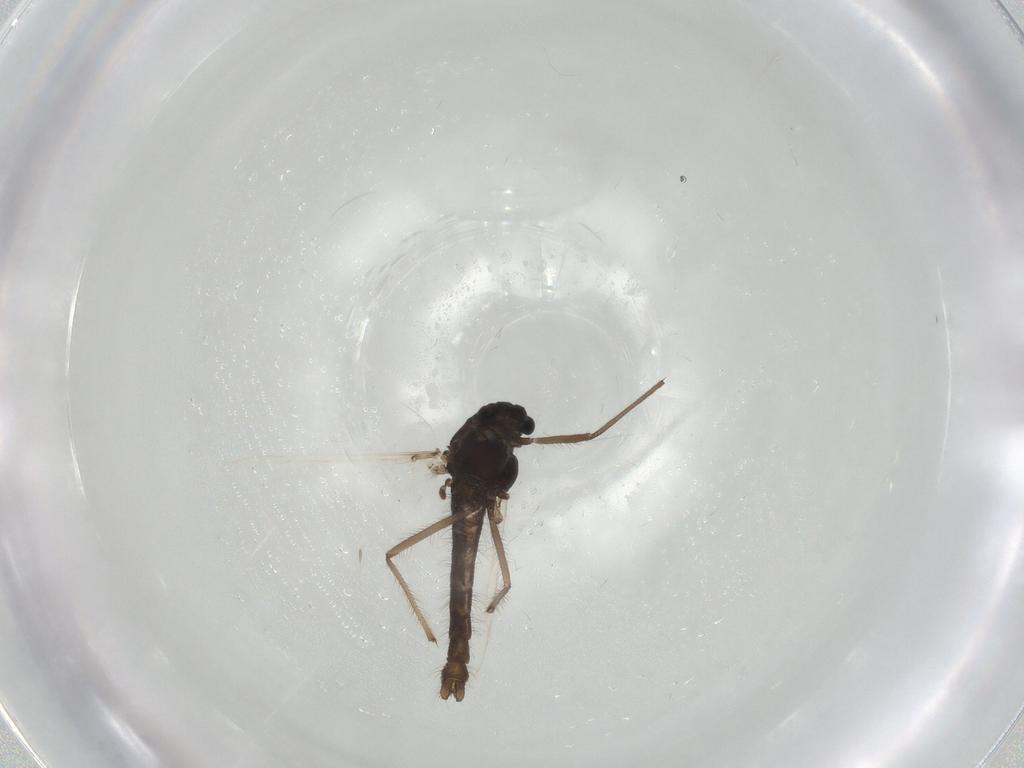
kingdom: Animalia
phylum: Arthropoda
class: Insecta
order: Diptera
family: Chironomidae
